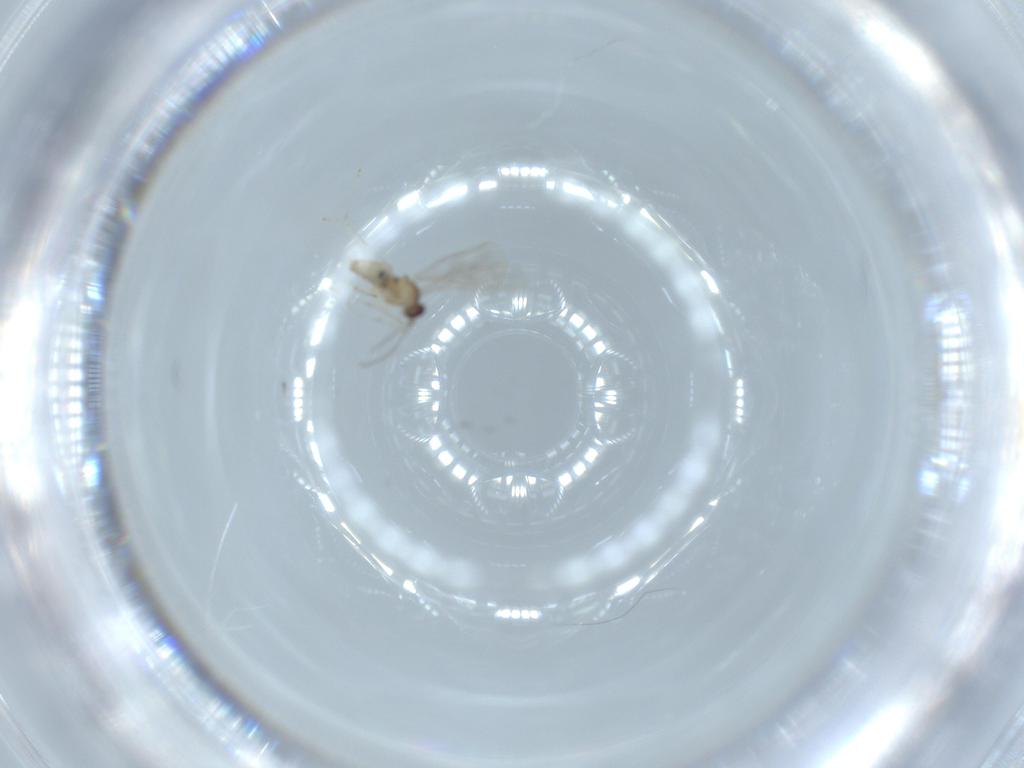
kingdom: Animalia
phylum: Arthropoda
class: Insecta
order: Diptera
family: Cecidomyiidae
